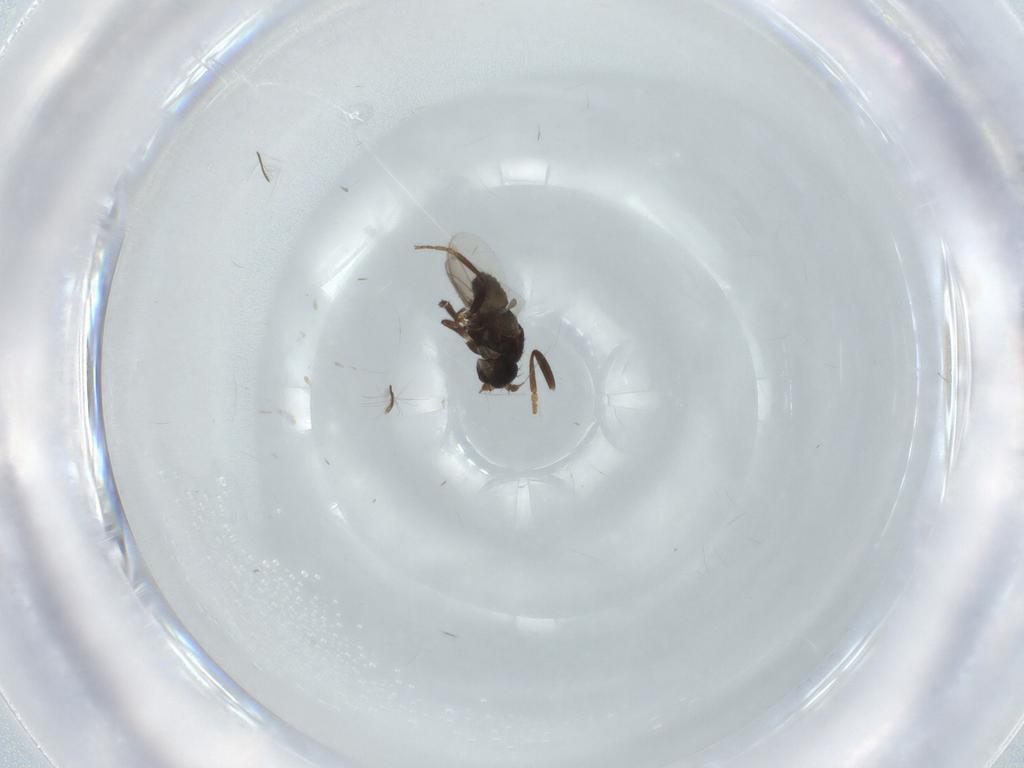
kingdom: Animalia
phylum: Arthropoda
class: Insecta
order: Diptera
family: Sphaeroceridae
